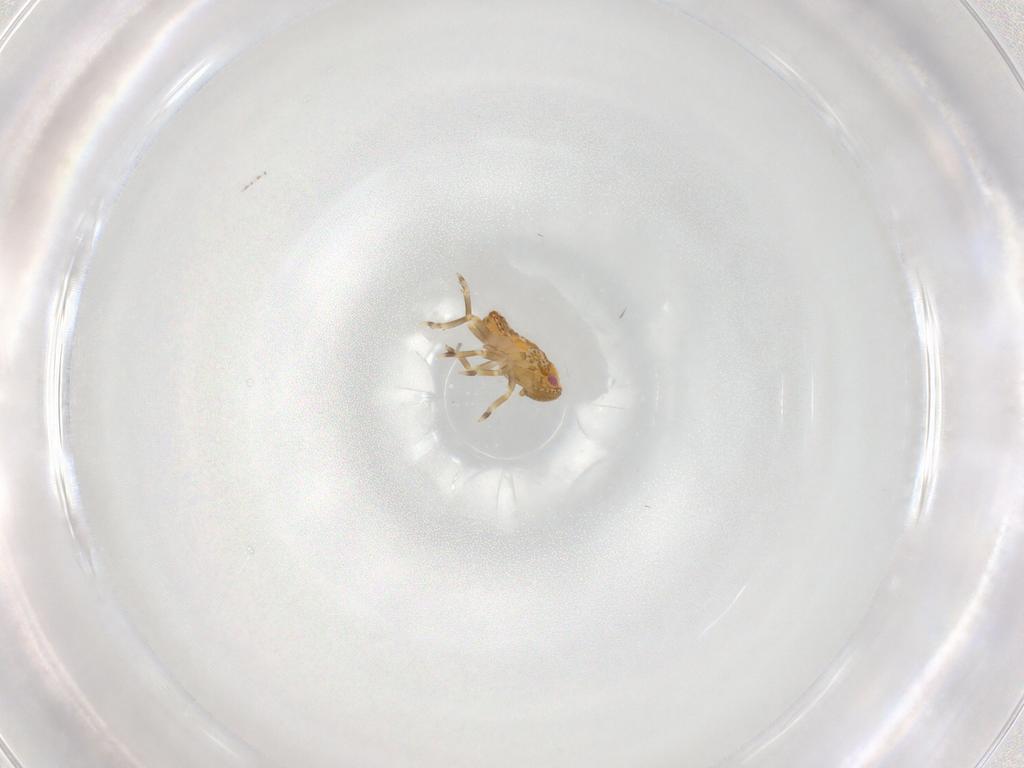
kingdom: Animalia
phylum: Arthropoda
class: Insecta
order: Hemiptera
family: Flatidae
